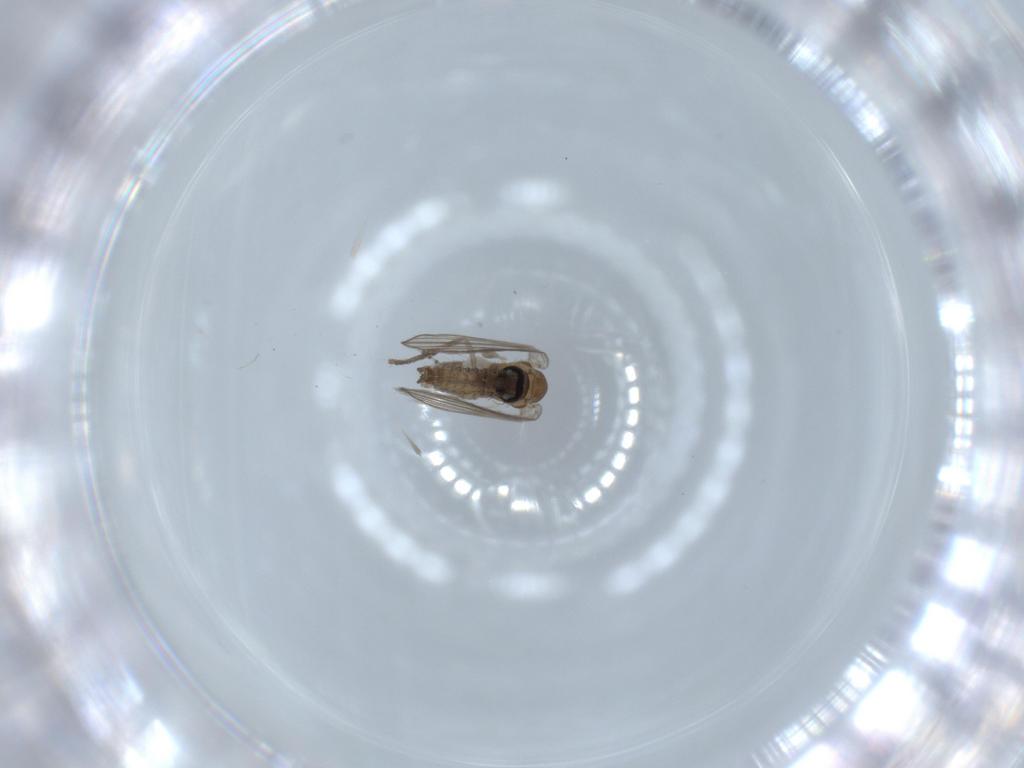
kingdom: Animalia
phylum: Arthropoda
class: Insecta
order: Diptera
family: Psychodidae
